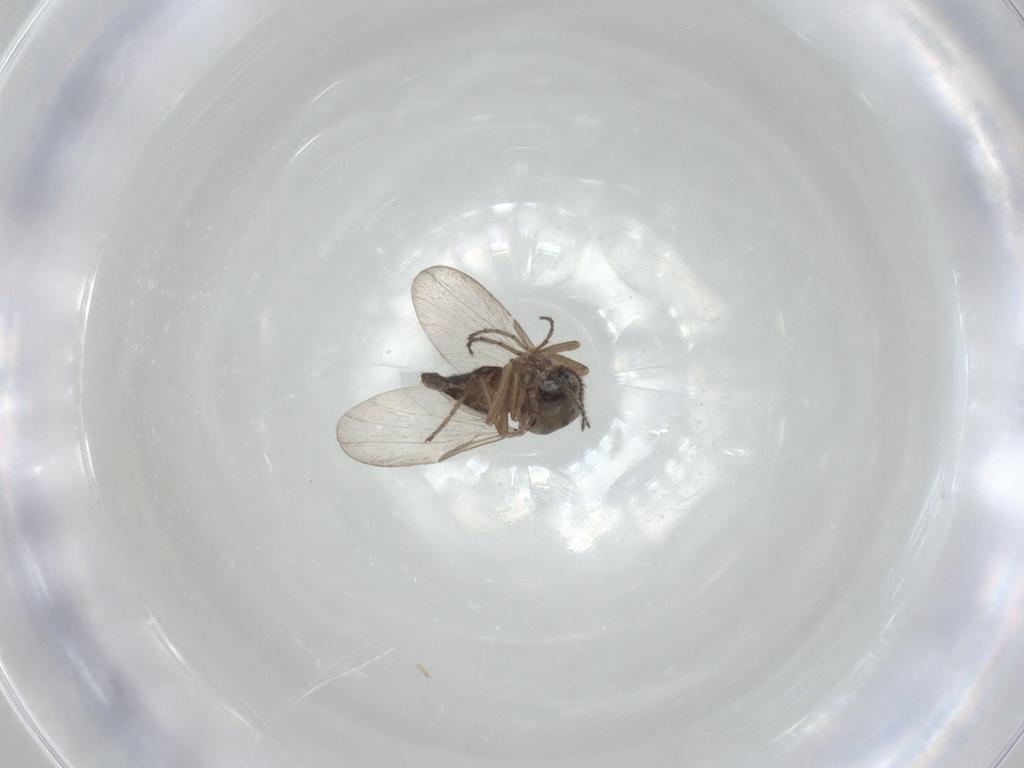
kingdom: Animalia
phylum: Arthropoda
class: Insecta
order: Diptera
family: Ceratopogonidae
